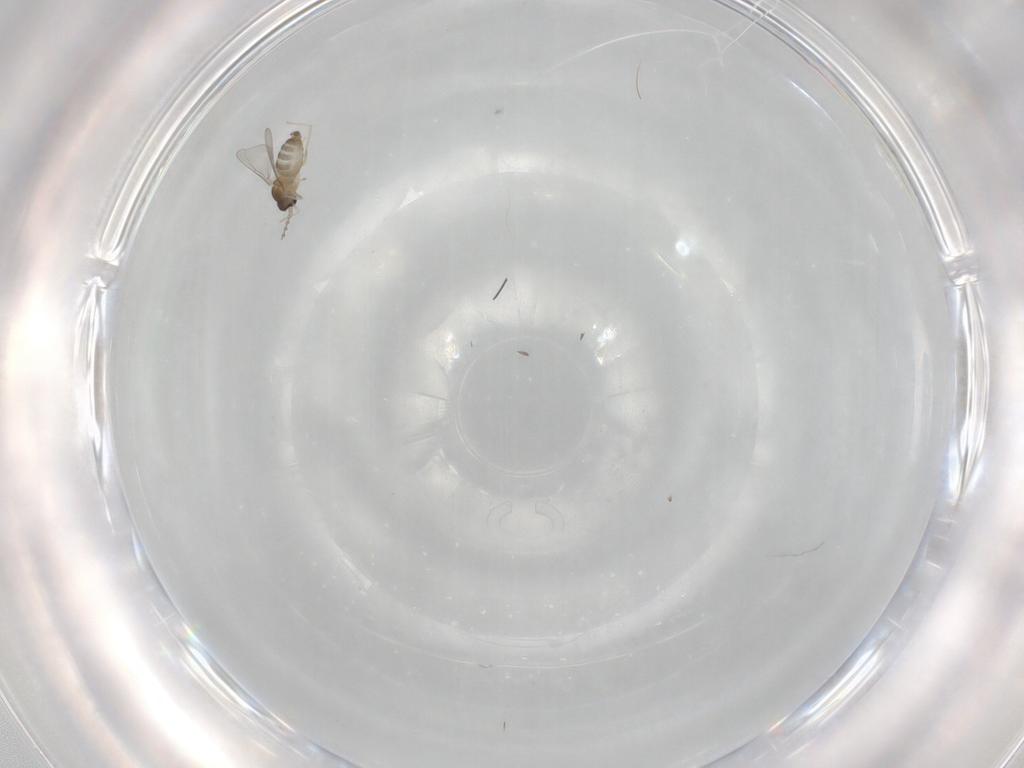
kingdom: Animalia
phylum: Arthropoda
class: Insecta
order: Diptera
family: Cecidomyiidae
